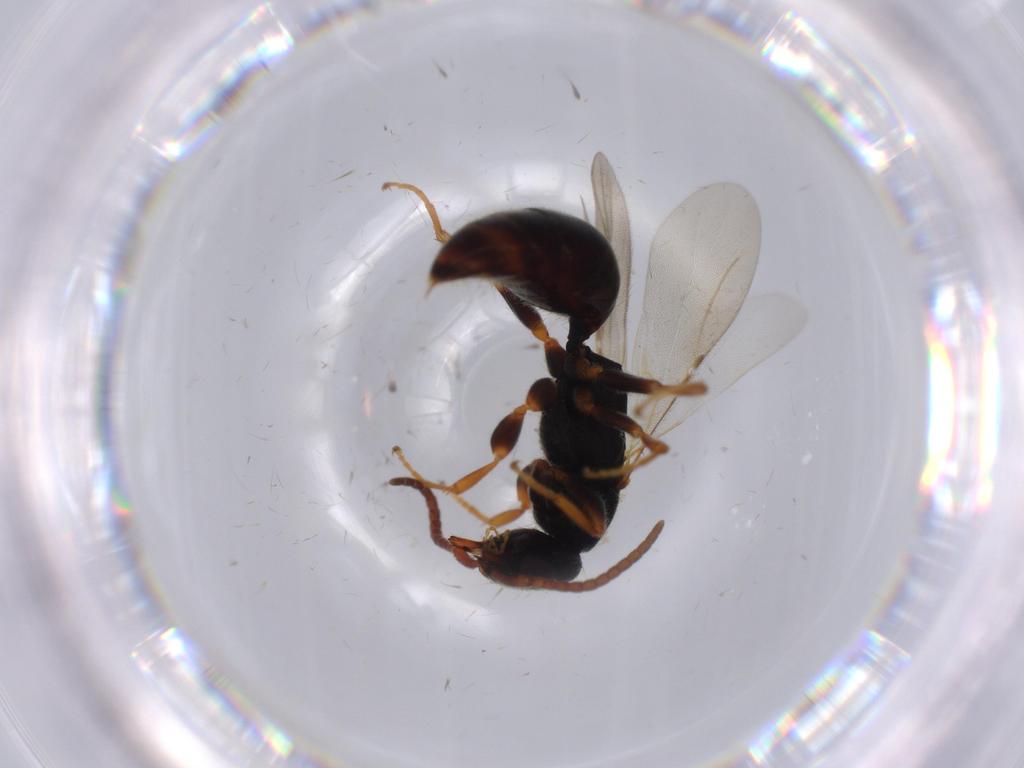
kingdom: Animalia
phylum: Arthropoda
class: Insecta
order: Hymenoptera
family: Bethylidae
